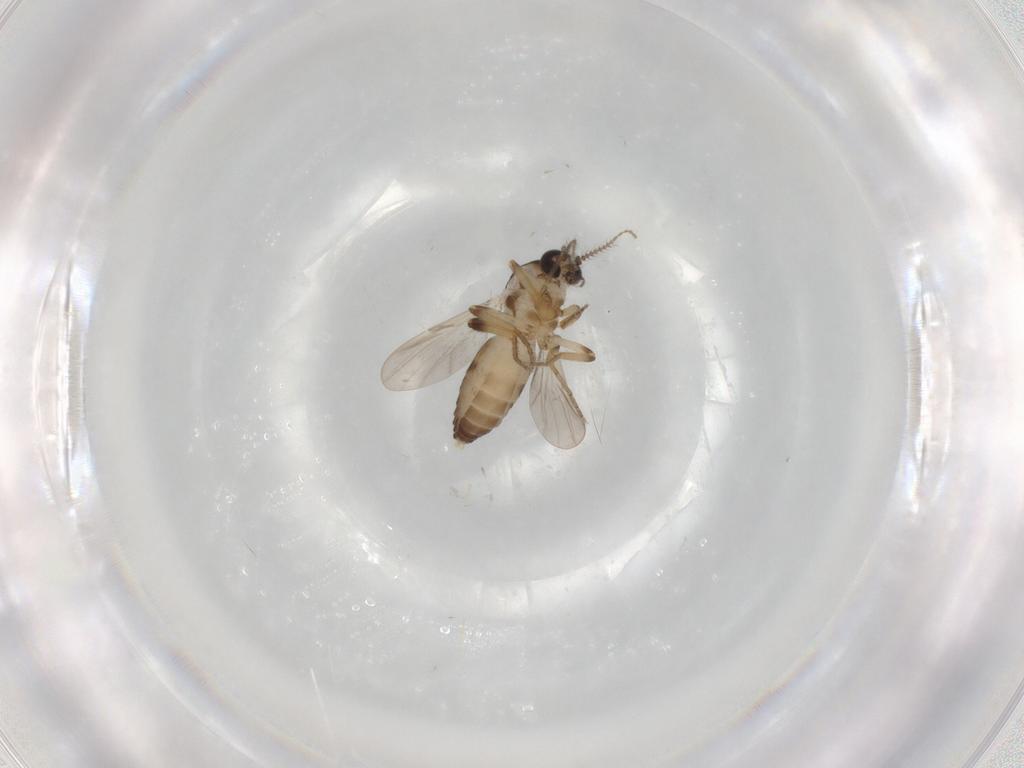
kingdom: Animalia
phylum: Arthropoda
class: Insecta
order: Diptera
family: Ceratopogonidae
